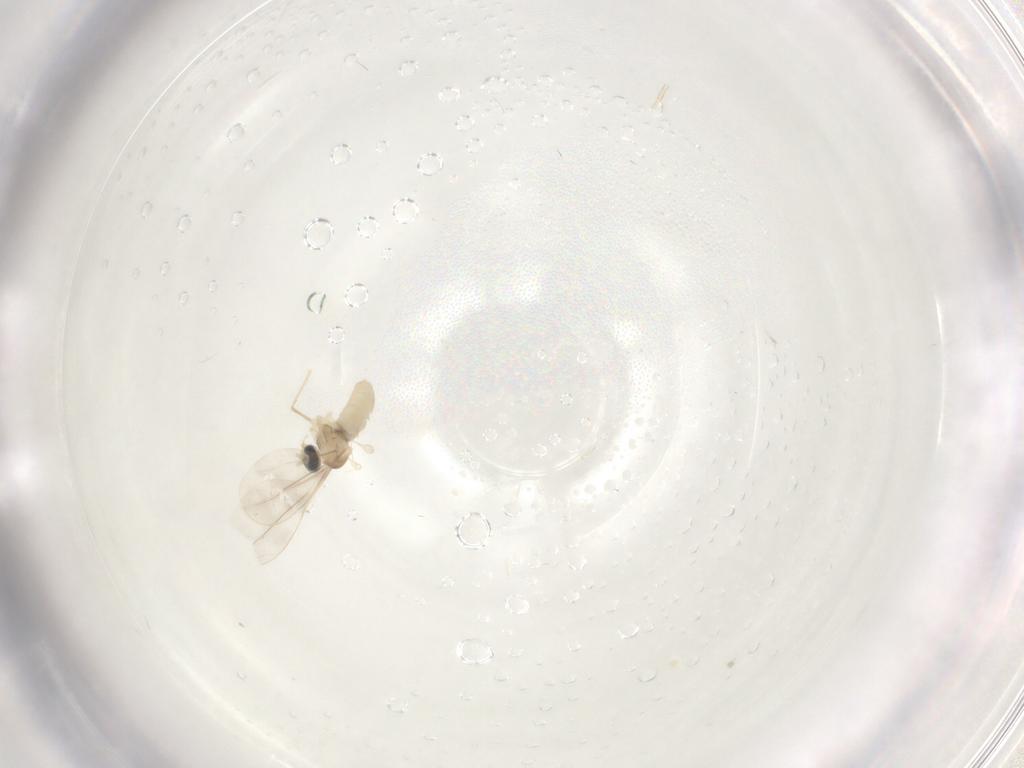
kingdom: Animalia
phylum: Arthropoda
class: Insecta
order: Diptera
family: Cecidomyiidae
